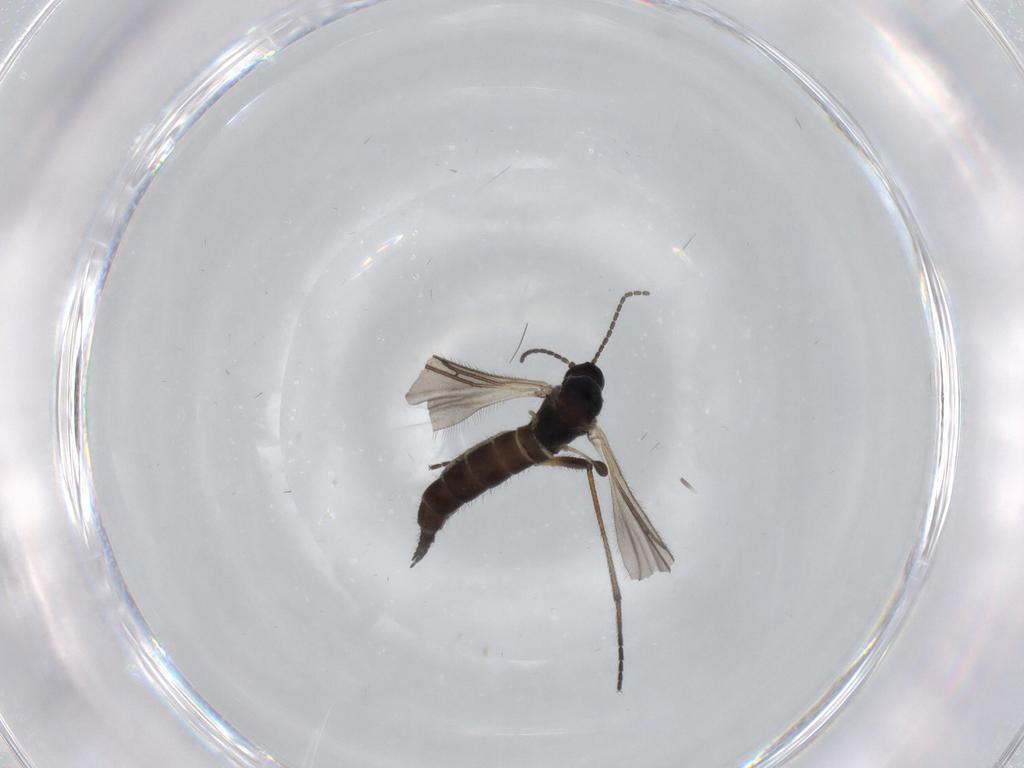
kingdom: Animalia
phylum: Arthropoda
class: Insecta
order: Diptera
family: Sciaridae
